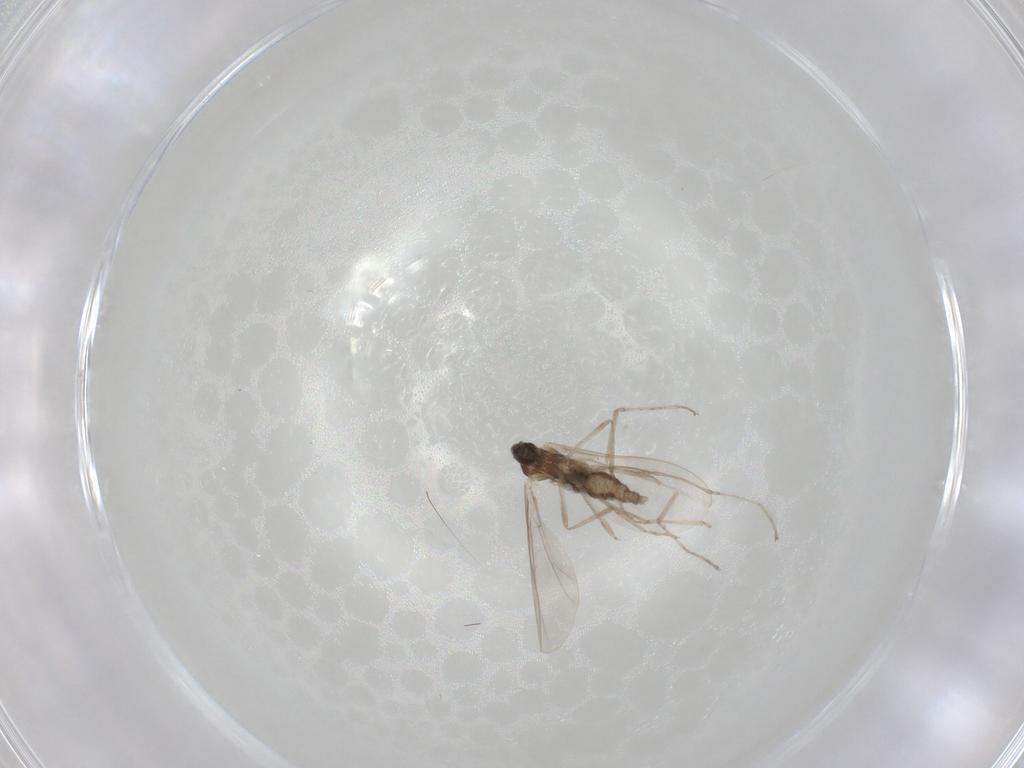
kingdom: Animalia
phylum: Arthropoda
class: Insecta
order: Diptera
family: Cecidomyiidae
